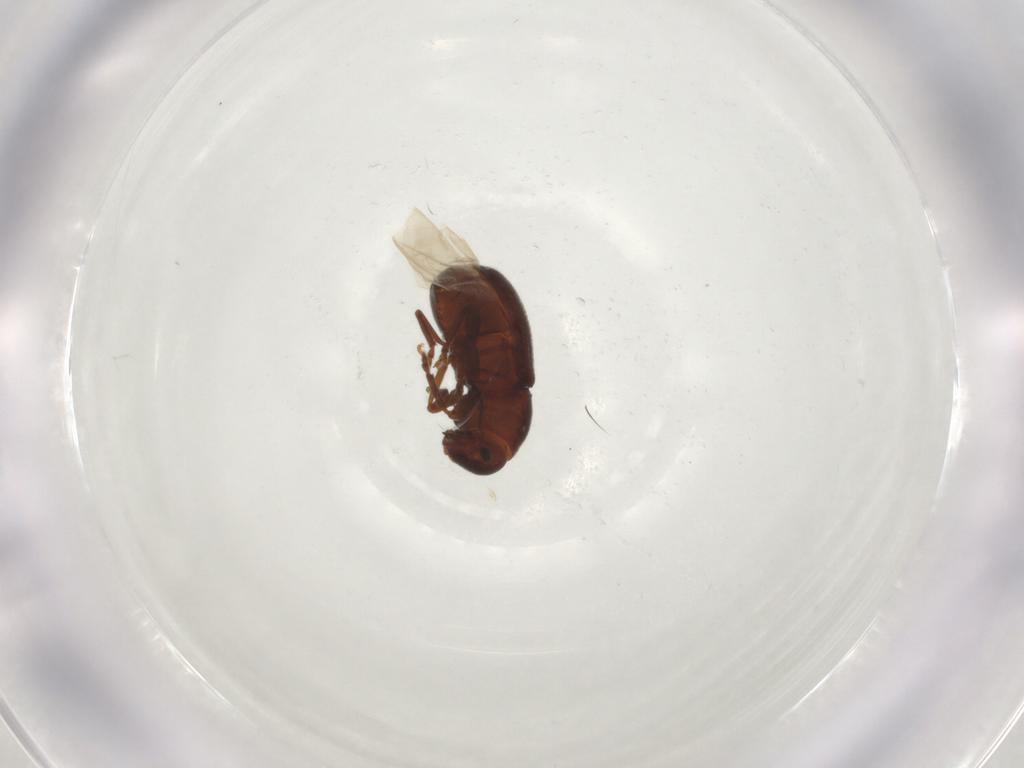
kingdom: Animalia
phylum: Arthropoda
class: Insecta
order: Coleoptera
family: Anthribidae
